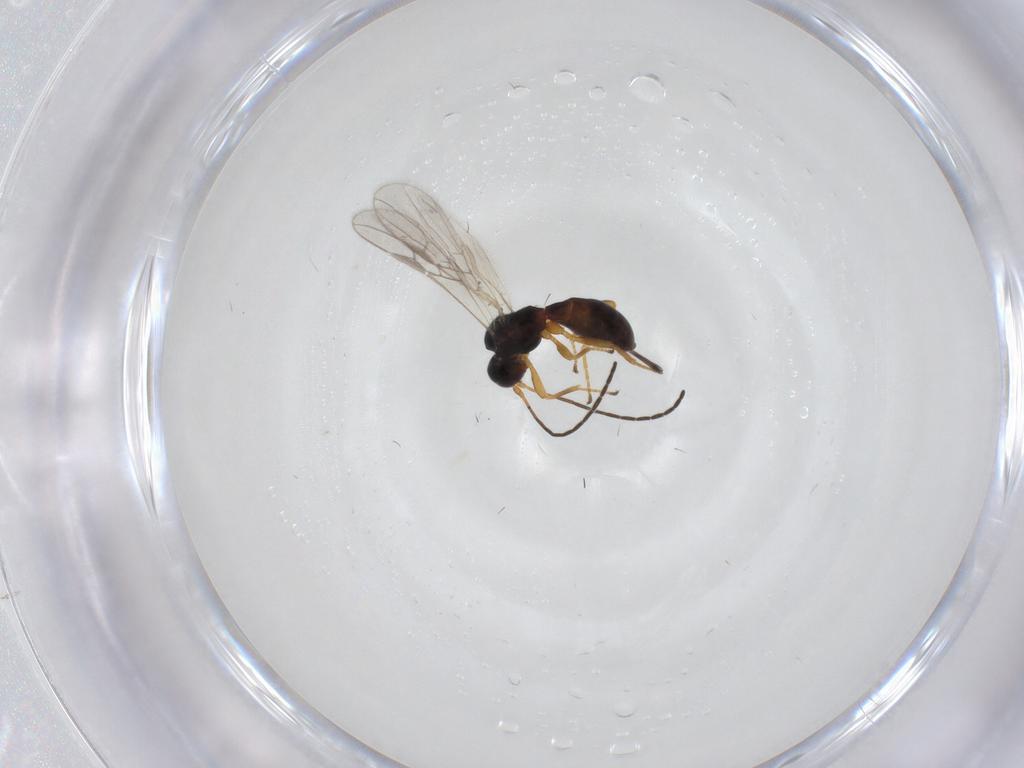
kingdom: Animalia
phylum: Arthropoda
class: Insecta
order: Hymenoptera
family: Braconidae
